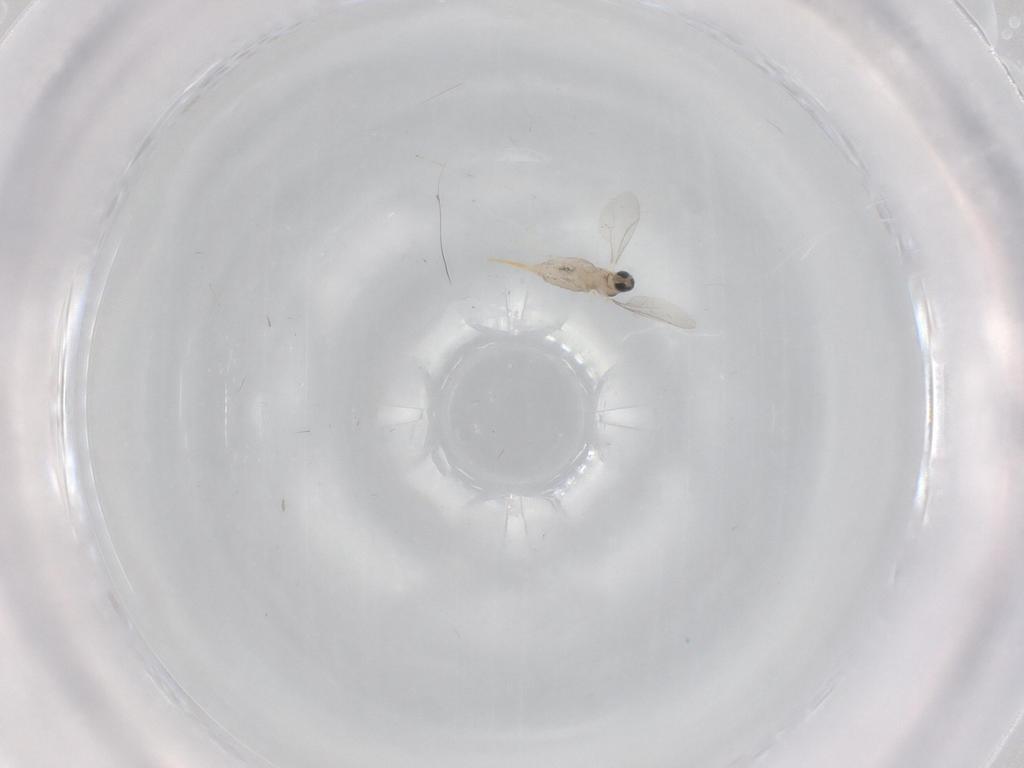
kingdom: Animalia
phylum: Arthropoda
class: Insecta
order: Diptera
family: Cecidomyiidae
